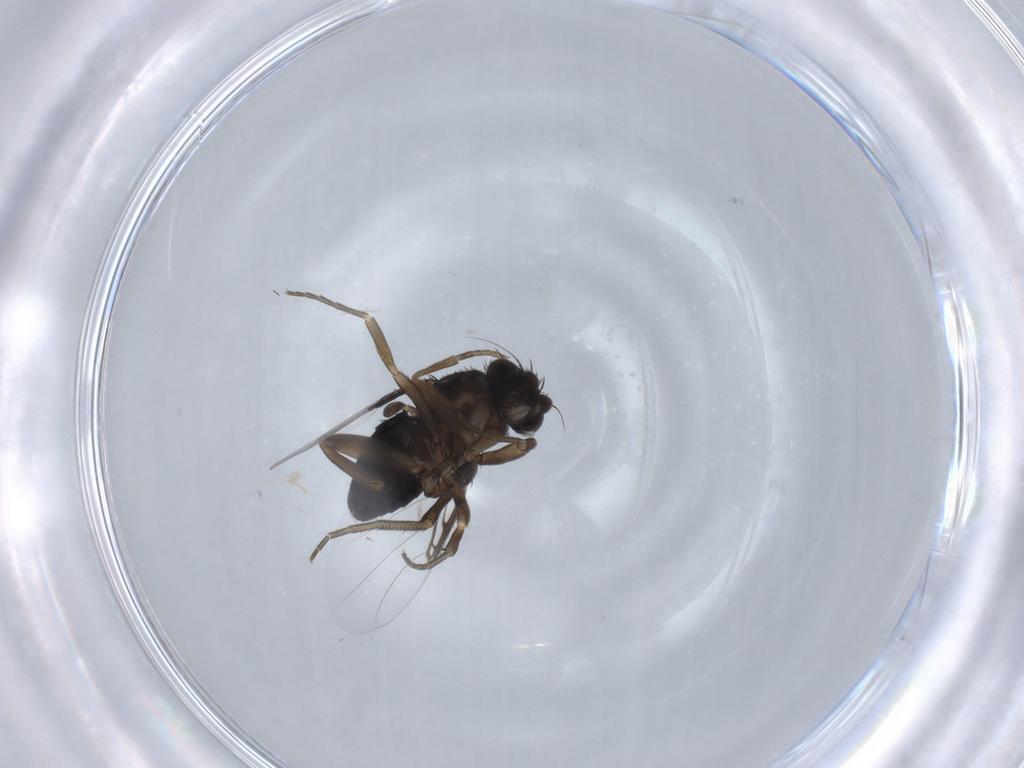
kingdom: Animalia
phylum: Arthropoda
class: Insecta
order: Diptera
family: Phoridae
